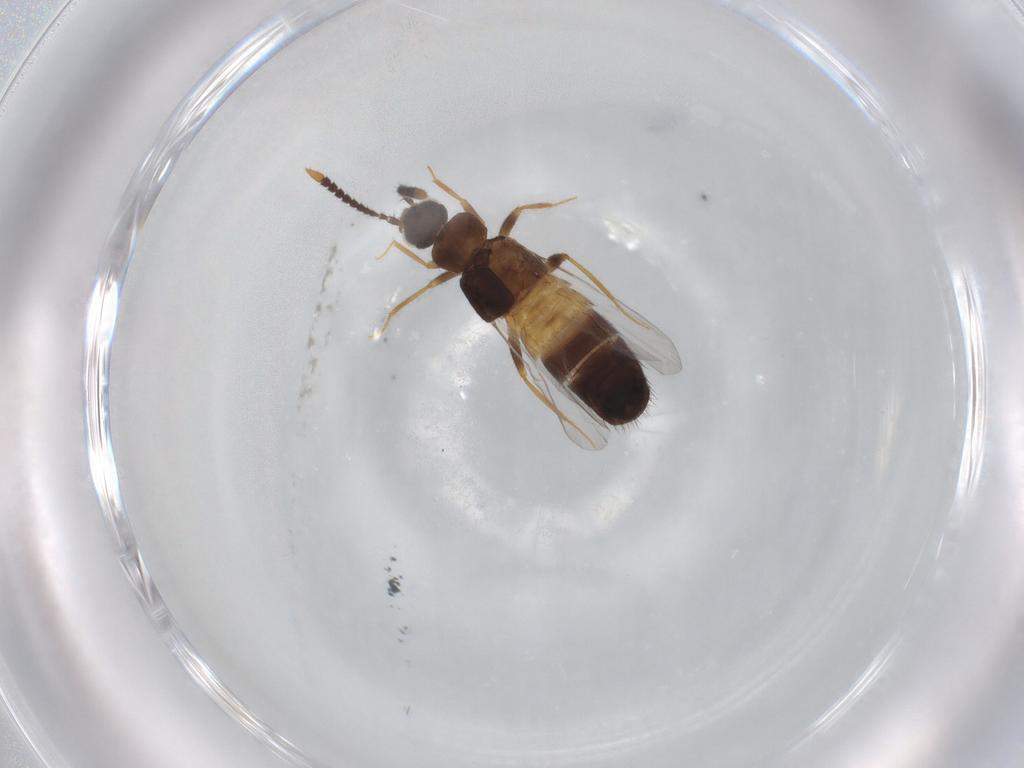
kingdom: Animalia
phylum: Arthropoda
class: Insecta
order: Coleoptera
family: Staphylinidae
